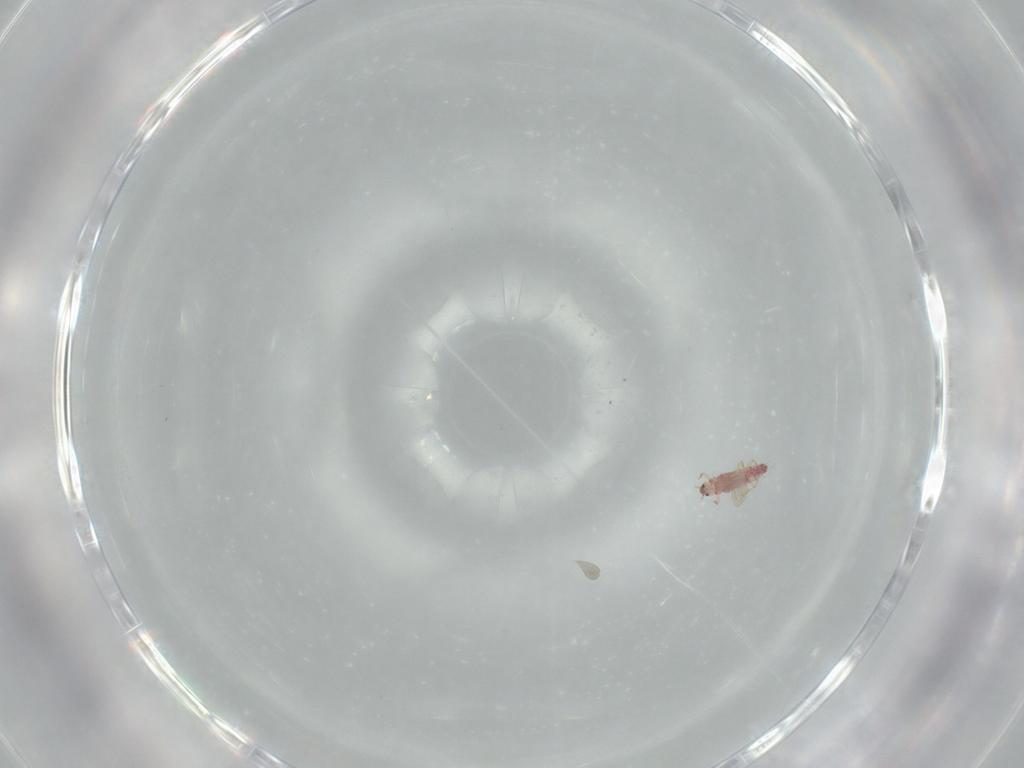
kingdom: Animalia
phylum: Arthropoda
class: Insecta
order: Hemiptera
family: Aleyrodidae
